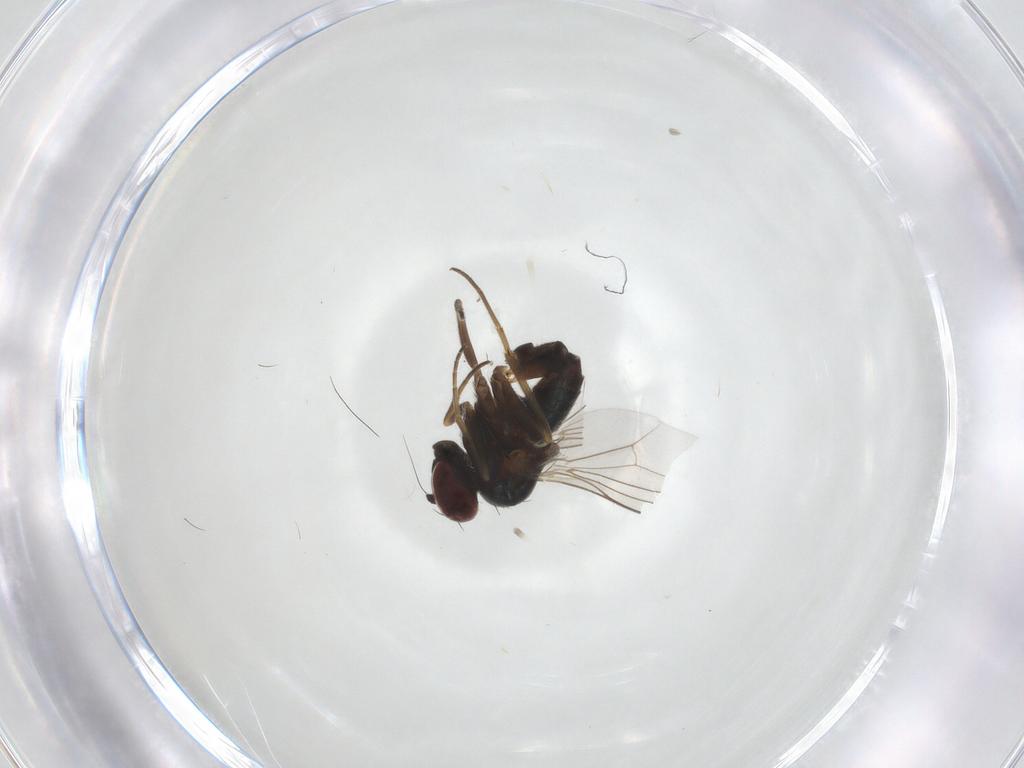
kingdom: Animalia
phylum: Arthropoda
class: Insecta
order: Diptera
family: Dolichopodidae
